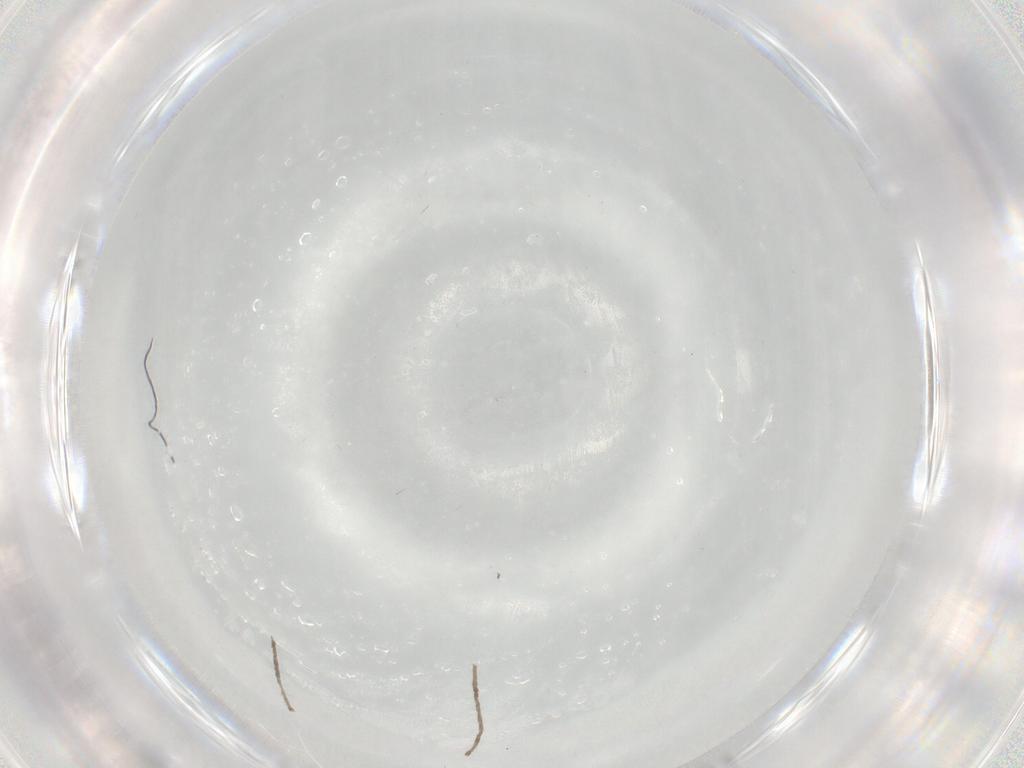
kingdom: Animalia
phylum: Arthropoda
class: Insecta
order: Diptera
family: Cecidomyiidae
